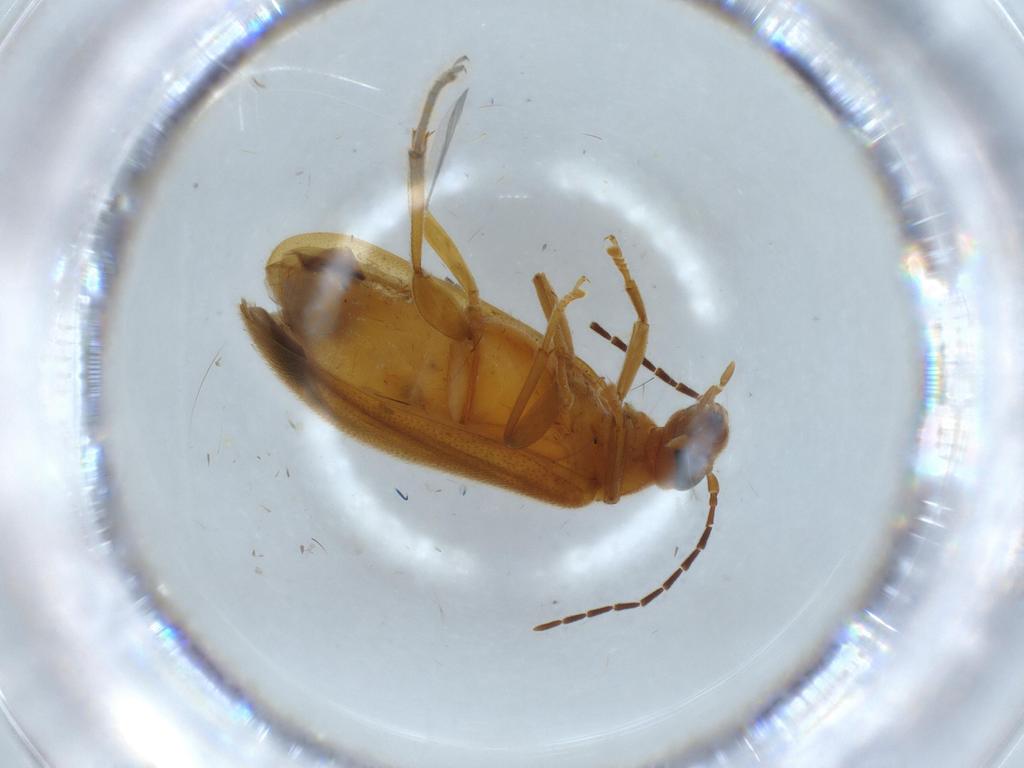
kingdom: Animalia
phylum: Arthropoda
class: Insecta
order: Coleoptera
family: Scraptiidae
